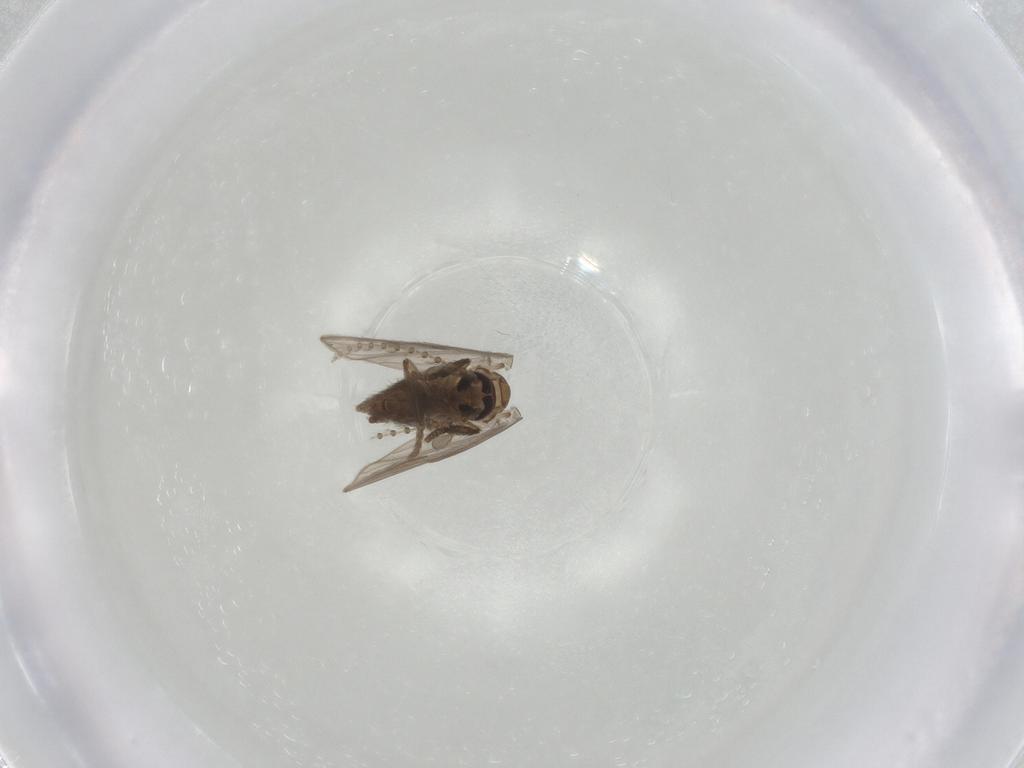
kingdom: Animalia
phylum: Arthropoda
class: Insecta
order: Diptera
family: Psychodidae
